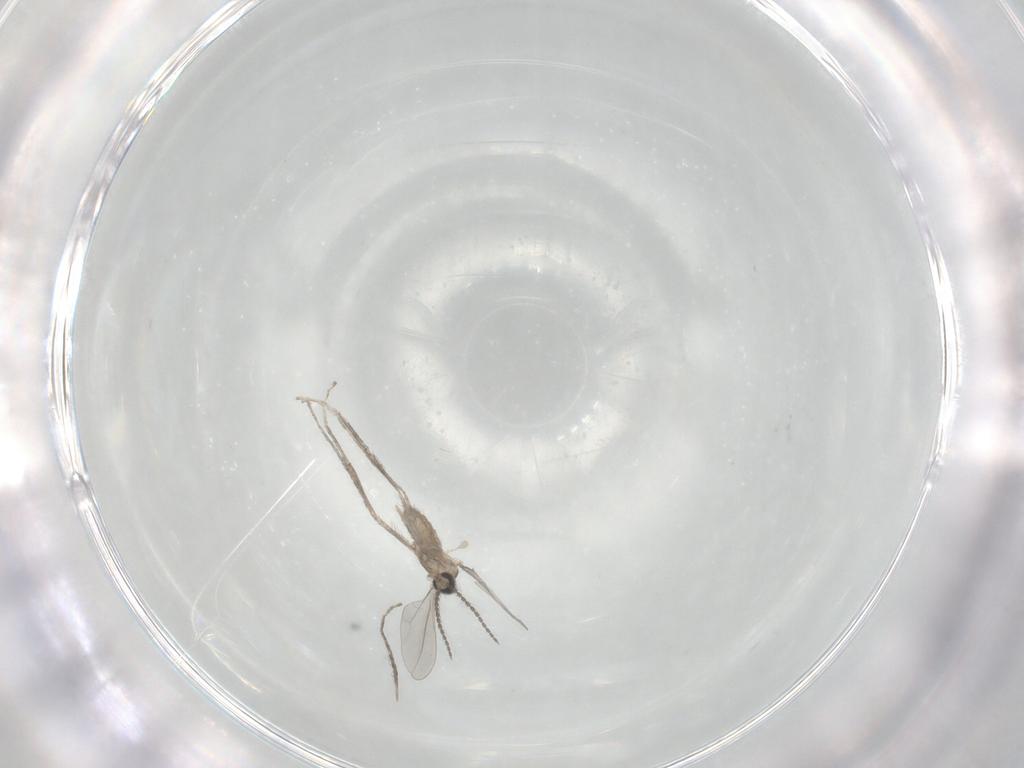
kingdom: Animalia
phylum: Arthropoda
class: Insecta
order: Diptera
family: Cecidomyiidae
